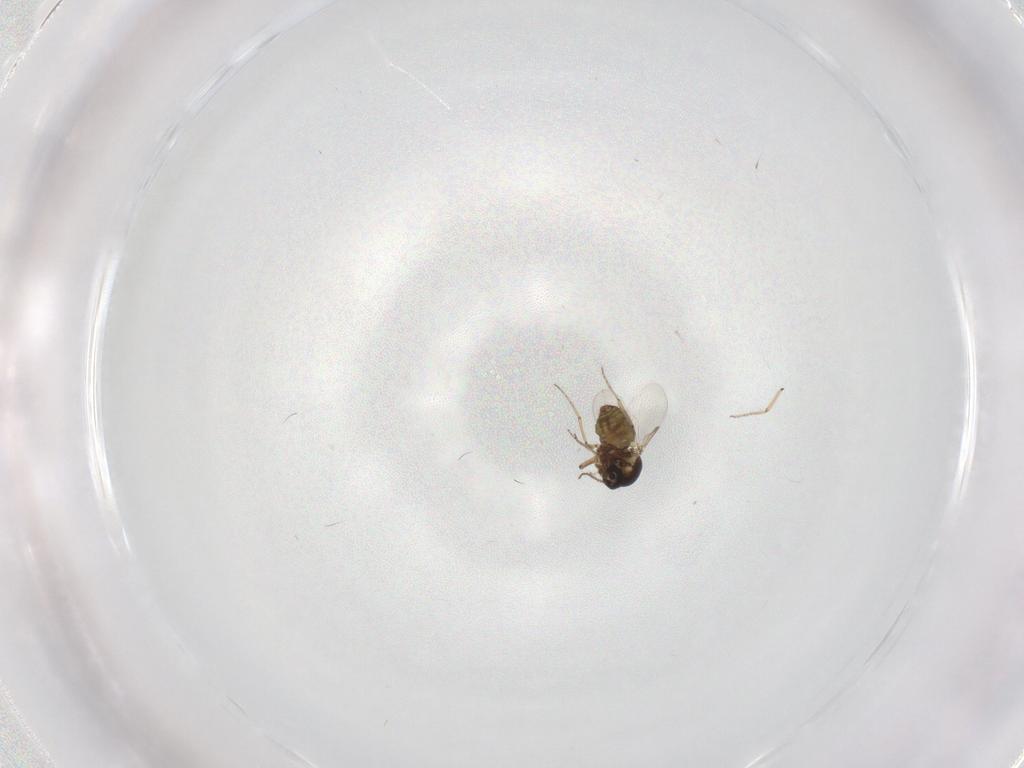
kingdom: Animalia
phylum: Arthropoda
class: Insecta
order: Diptera
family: Ceratopogonidae
